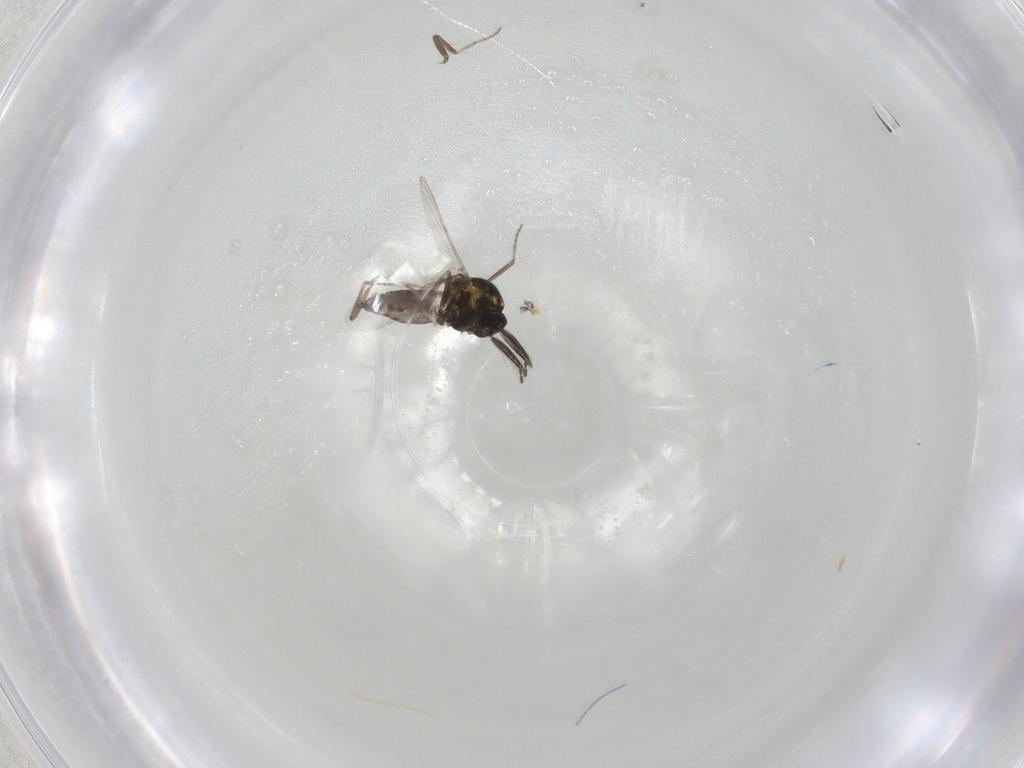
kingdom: Animalia
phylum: Arthropoda
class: Insecta
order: Diptera
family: Ceratopogonidae
